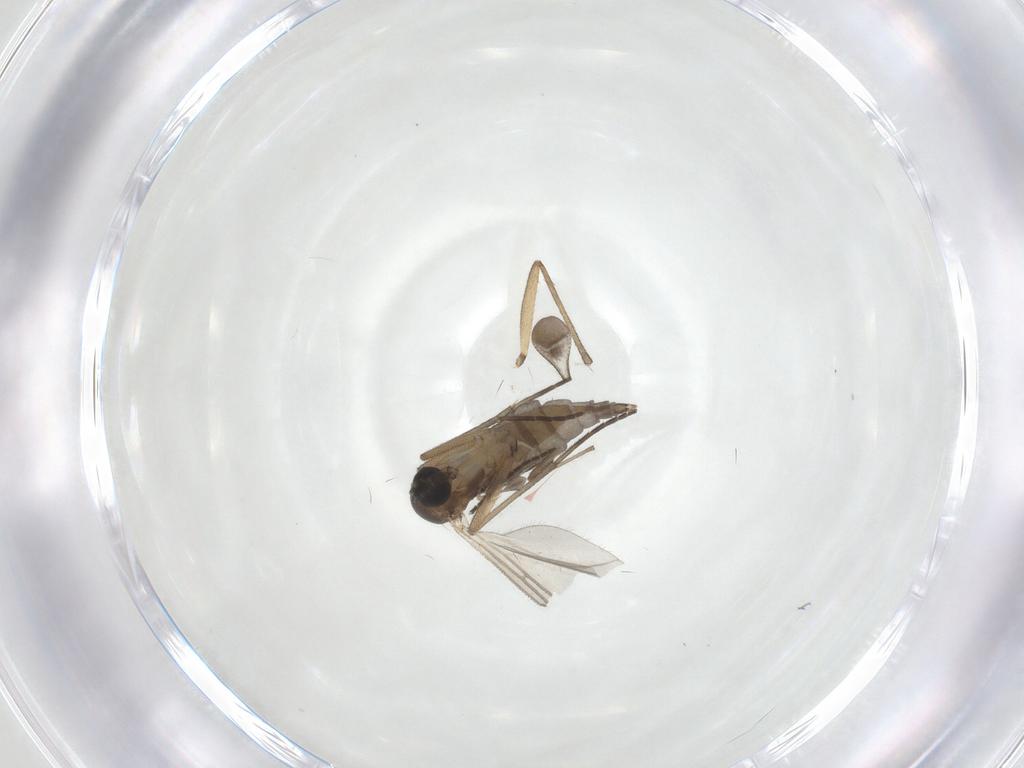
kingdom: Animalia
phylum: Arthropoda
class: Insecta
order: Diptera
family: Sciaridae
